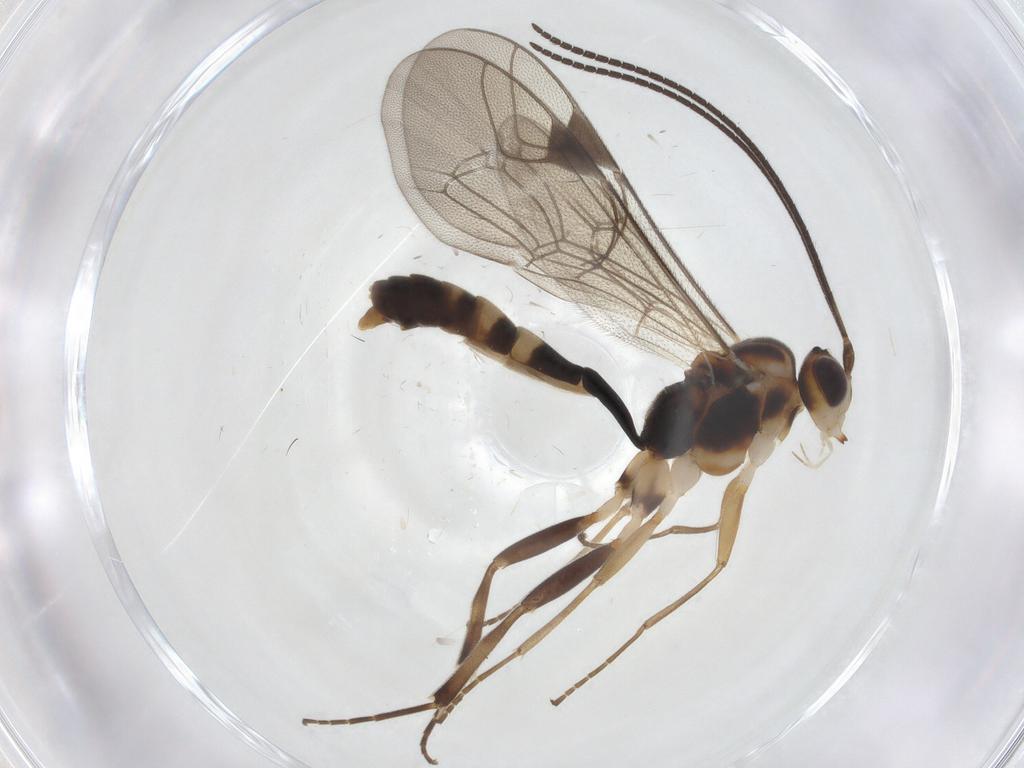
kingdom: Animalia
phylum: Arthropoda
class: Insecta
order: Hymenoptera
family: Ichneumonidae
